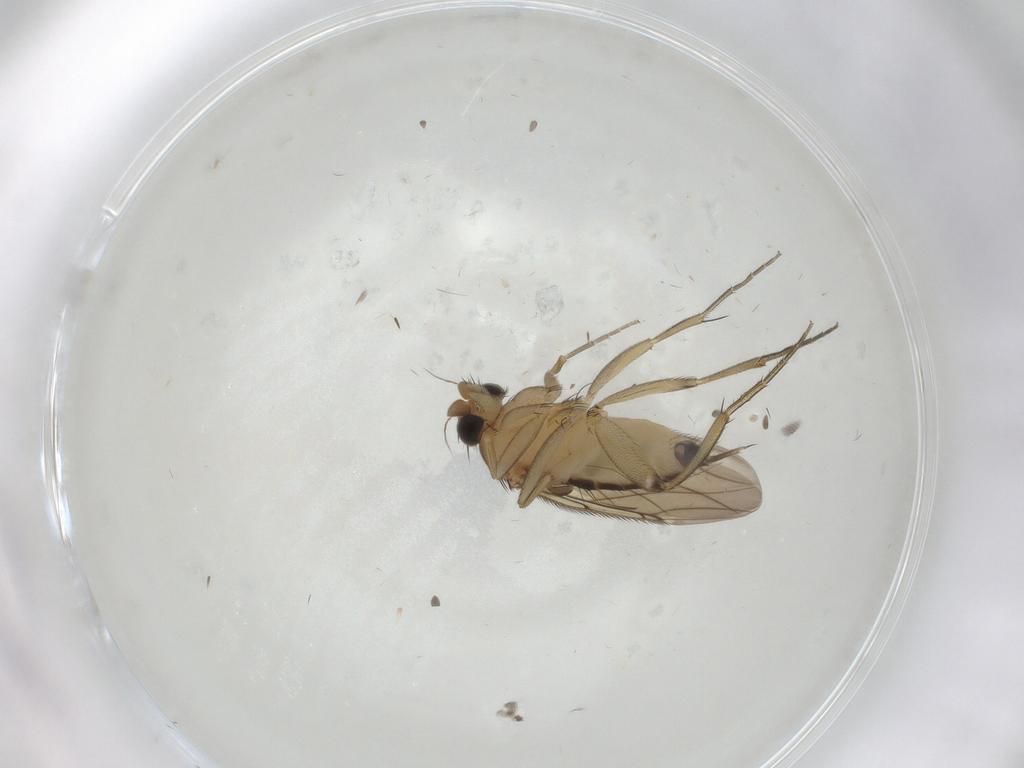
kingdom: Animalia
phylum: Arthropoda
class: Insecta
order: Diptera
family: Phoridae
